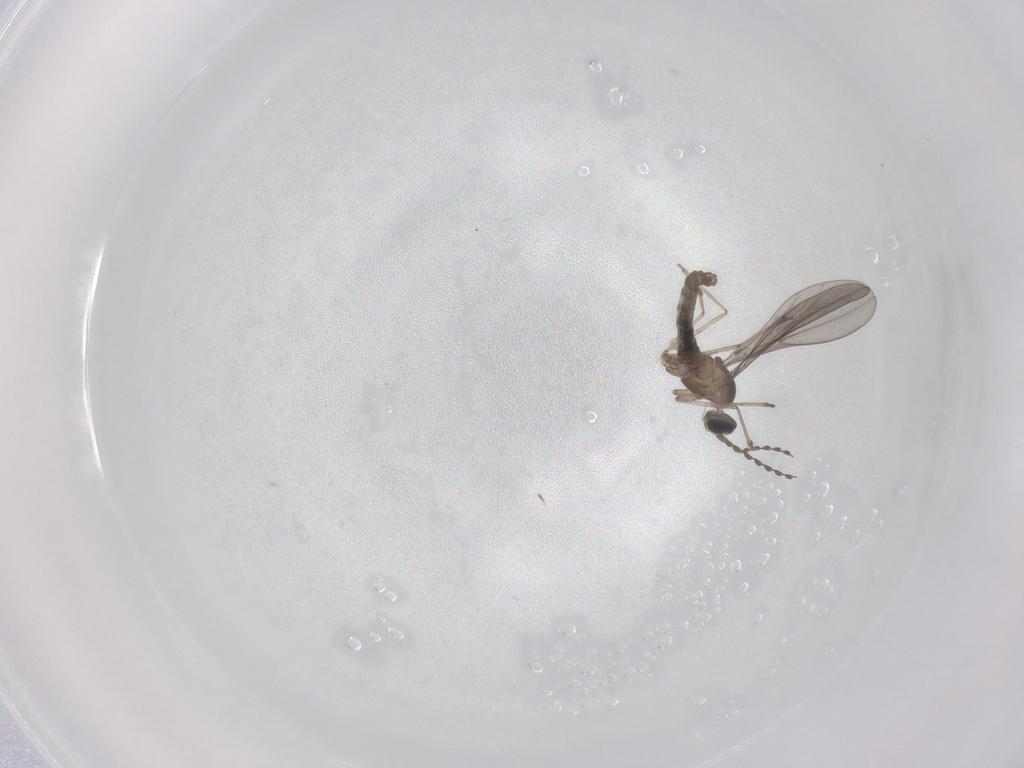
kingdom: Animalia
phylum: Arthropoda
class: Insecta
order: Diptera
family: Cecidomyiidae
